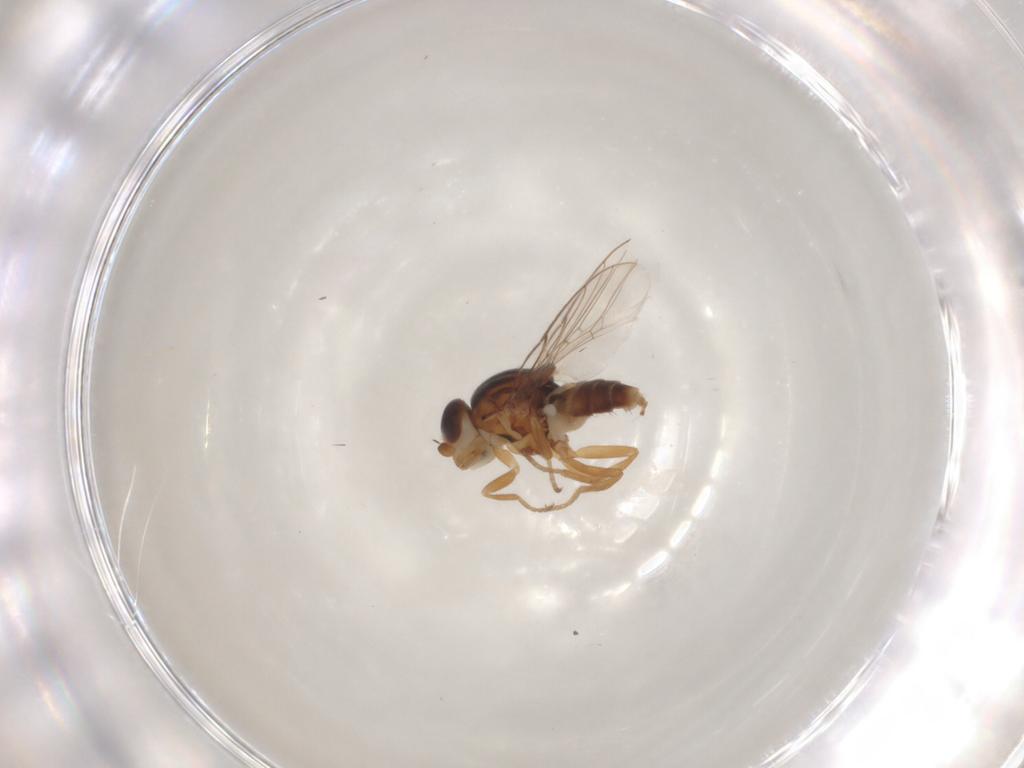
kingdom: Animalia
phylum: Arthropoda
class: Insecta
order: Diptera
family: Chloropidae
